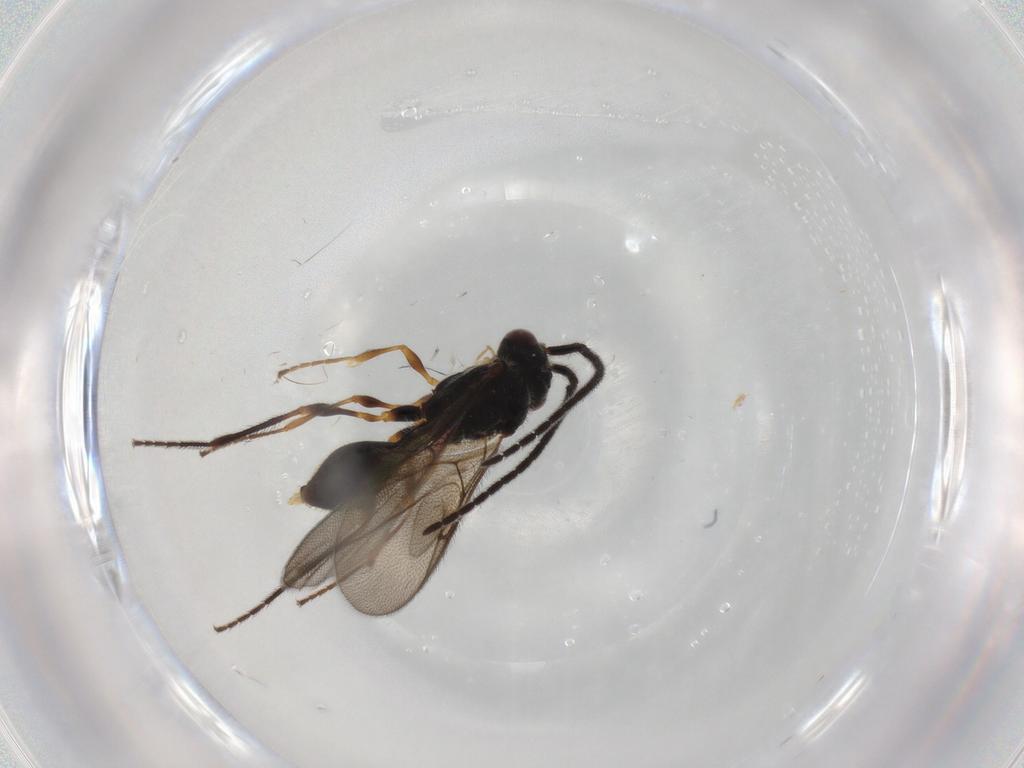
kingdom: Animalia
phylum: Arthropoda
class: Insecta
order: Hymenoptera
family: Diapriidae
